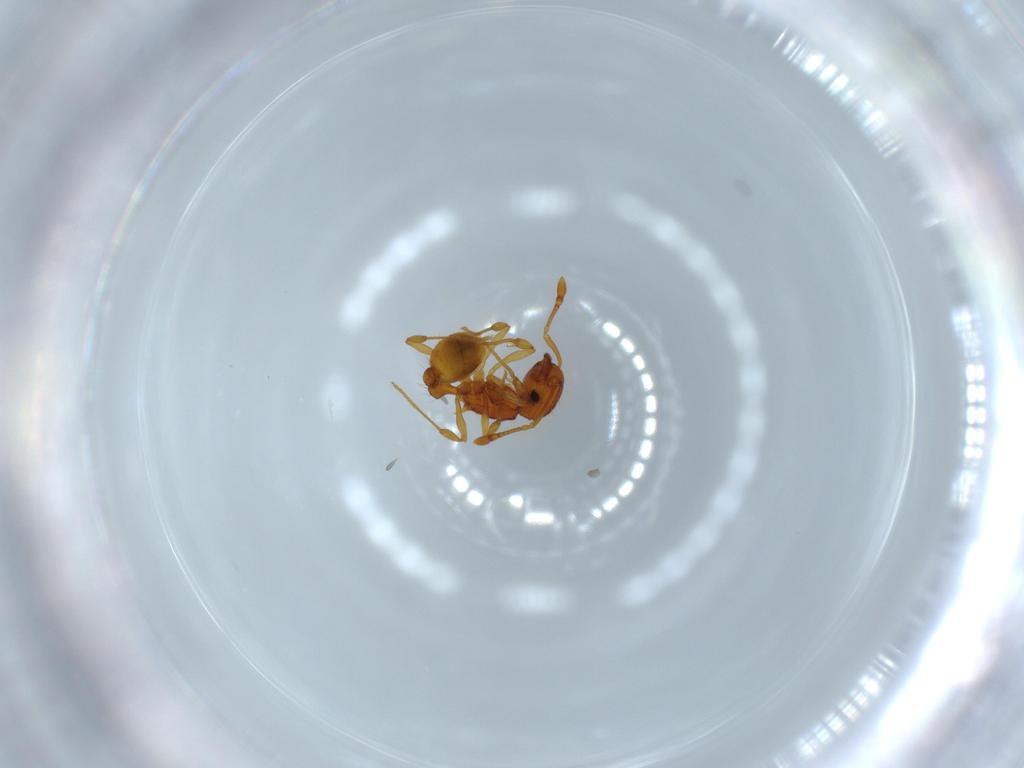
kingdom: Animalia
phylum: Arthropoda
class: Insecta
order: Hymenoptera
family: Formicidae
